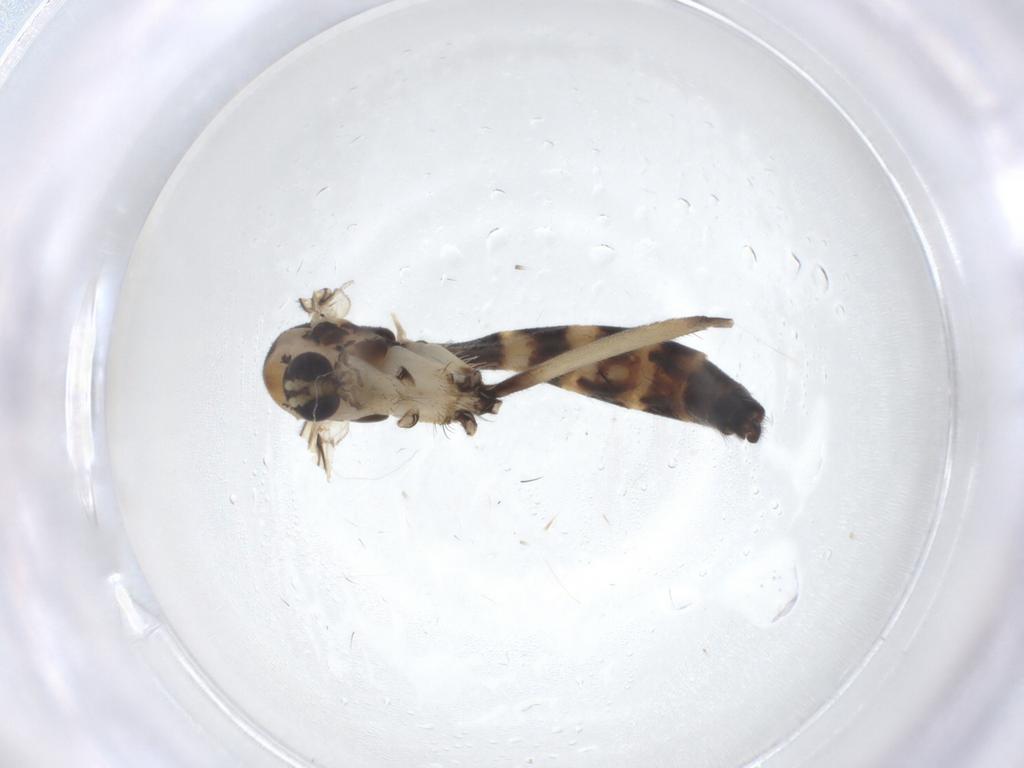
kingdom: Animalia
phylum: Arthropoda
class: Insecta
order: Diptera
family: Mycetophilidae
